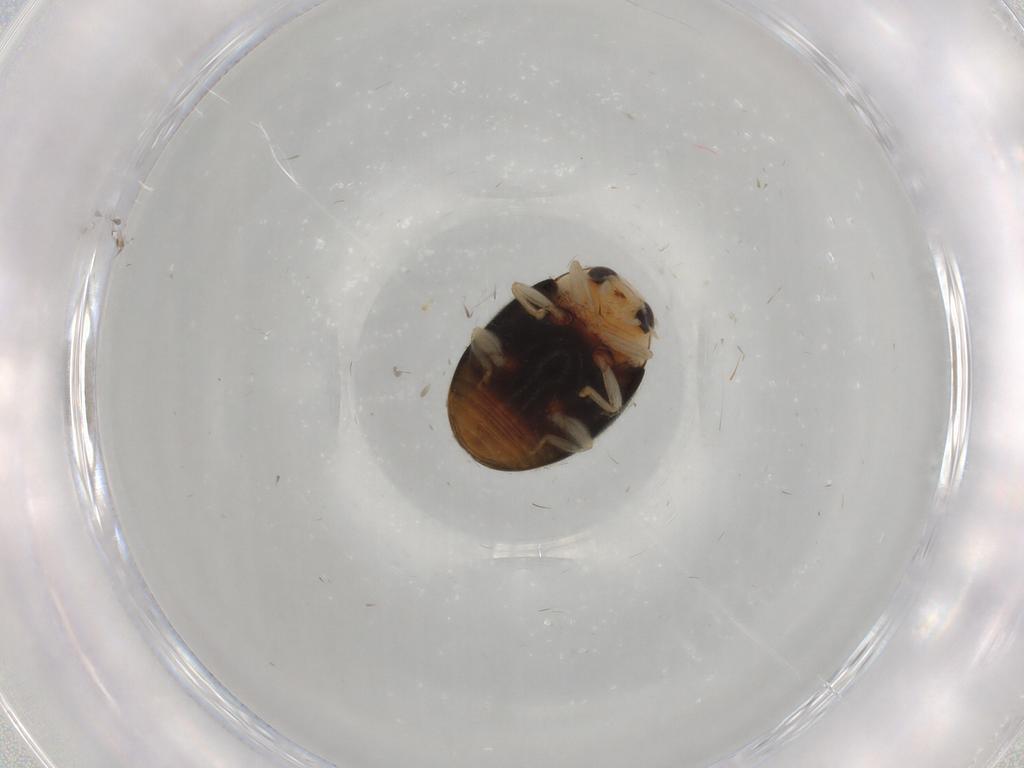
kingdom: Animalia
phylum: Arthropoda
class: Insecta
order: Coleoptera
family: Coccinellidae
